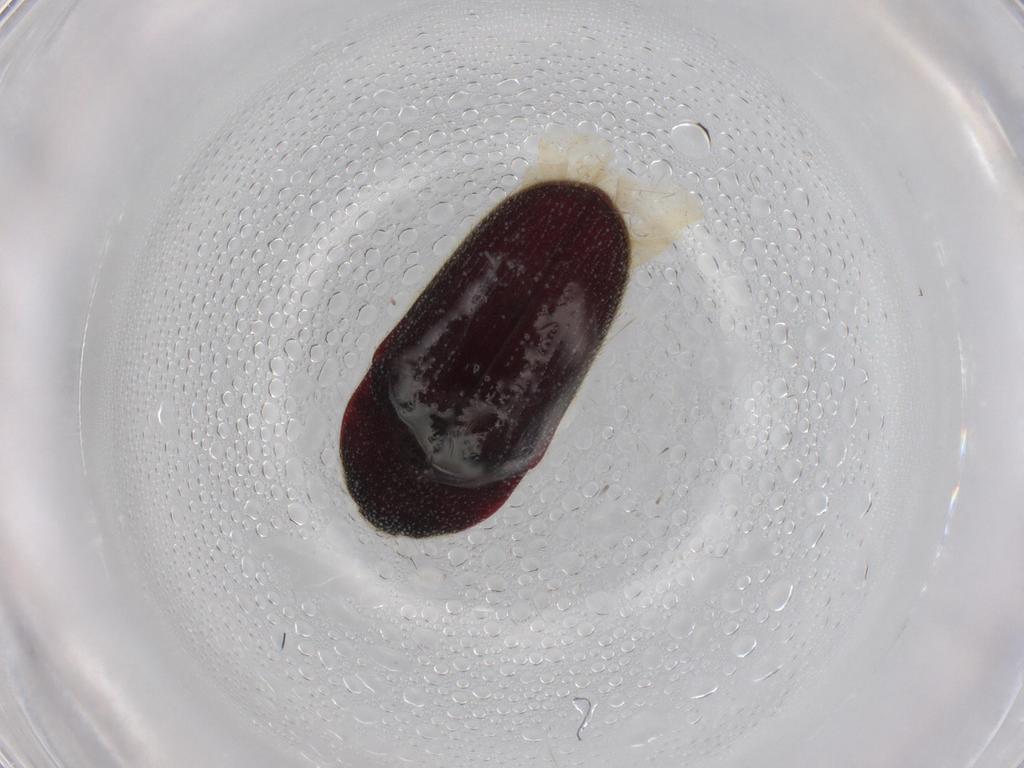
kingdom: Animalia
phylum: Arthropoda
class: Insecta
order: Coleoptera
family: Throscidae
